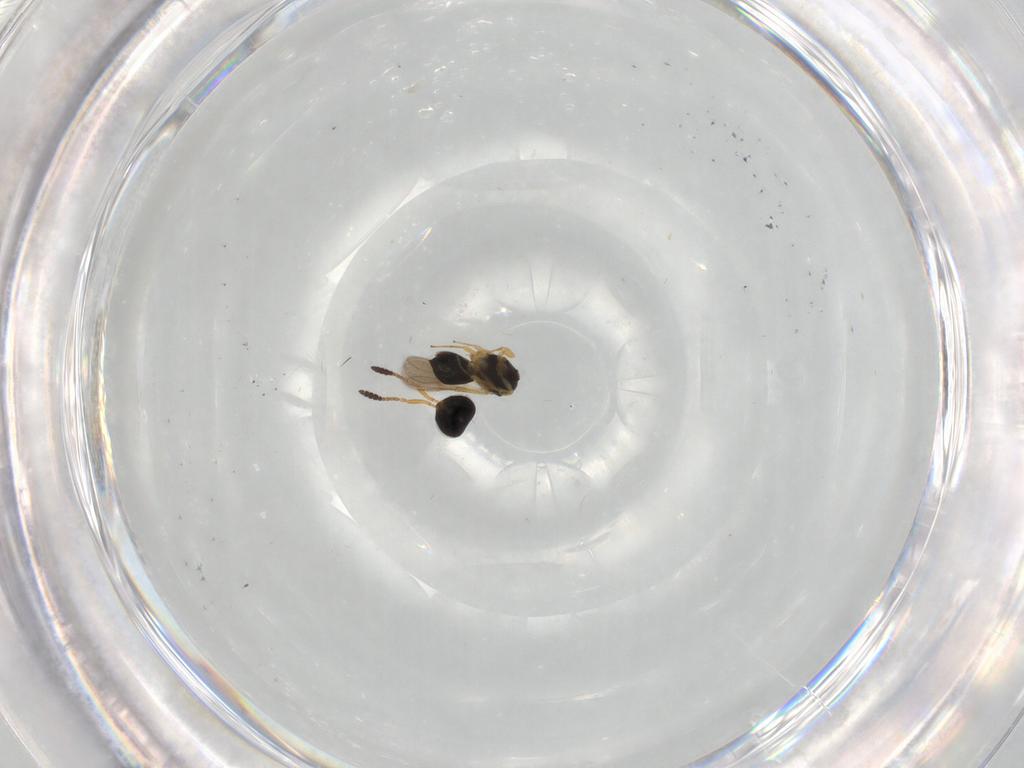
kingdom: Animalia
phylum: Arthropoda
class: Insecta
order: Hymenoptera
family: Scelionidae
